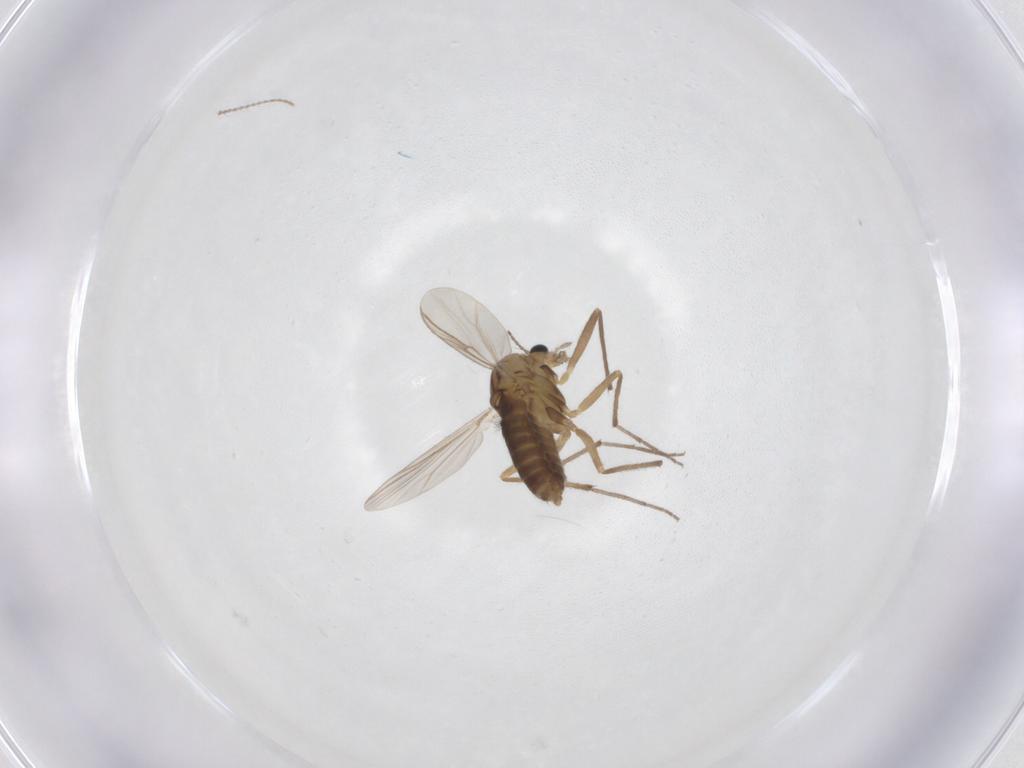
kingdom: Animalia
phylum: Arthropoda
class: Insecta
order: Diptera
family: Chironomidae
